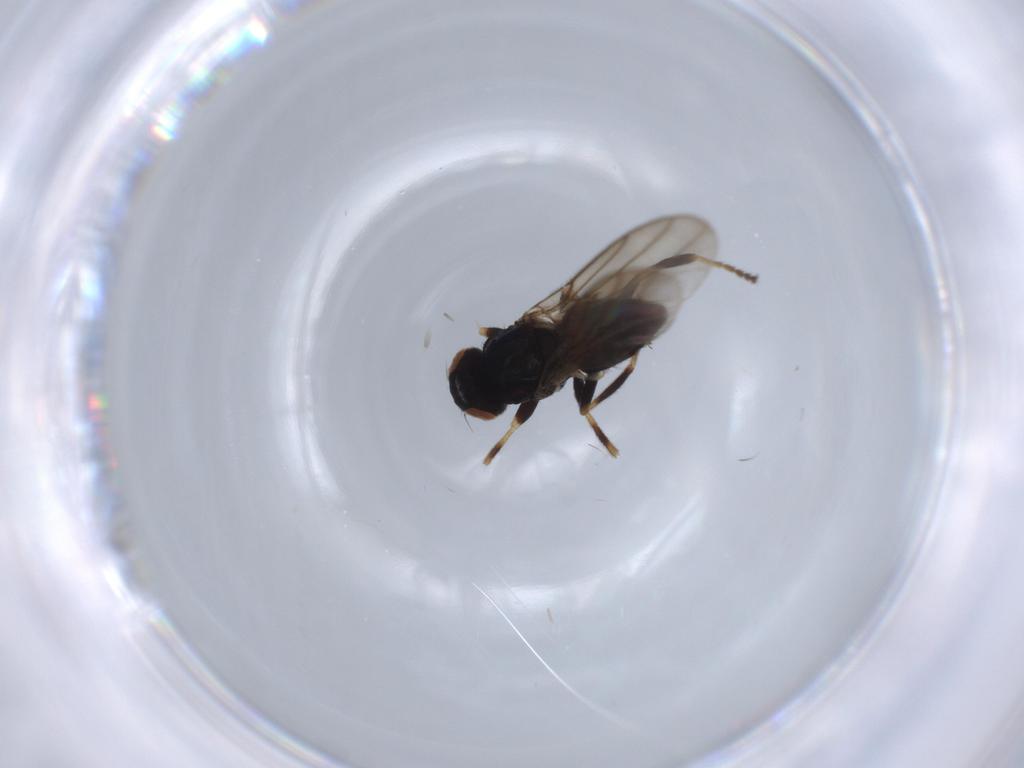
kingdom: Animalia
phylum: Arthropoda
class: Insecta
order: Diptera
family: Chloropidae
